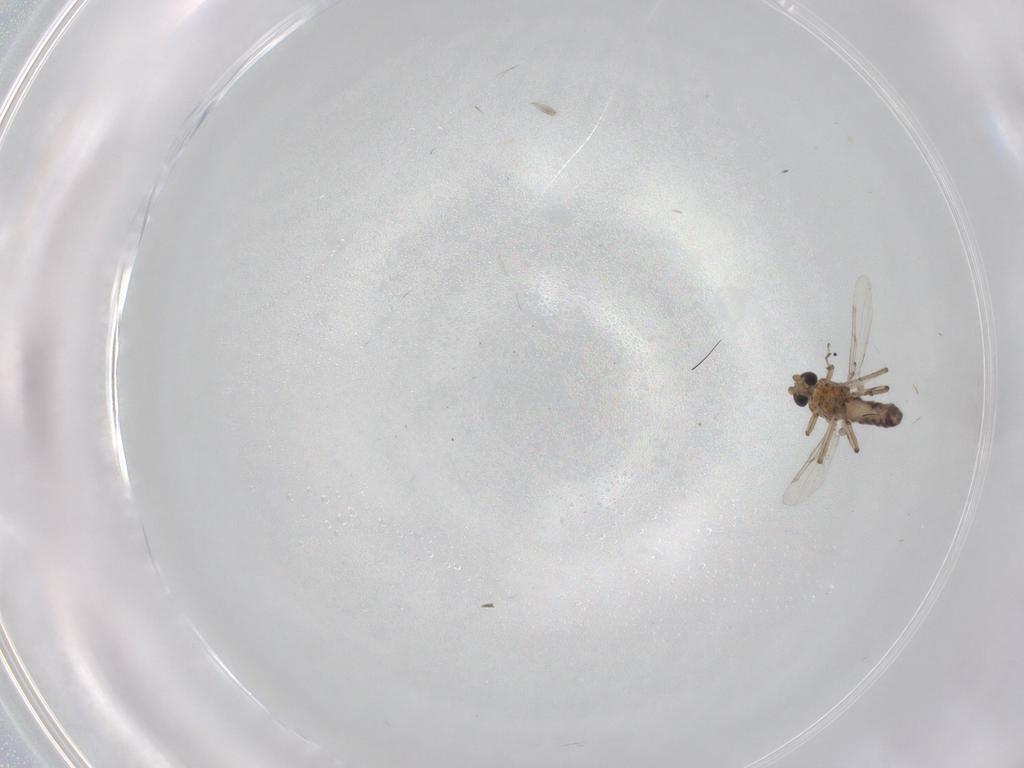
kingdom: Animalia
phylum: Arthropoda
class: Insecta
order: Diptera
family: Ceratopogonidae
